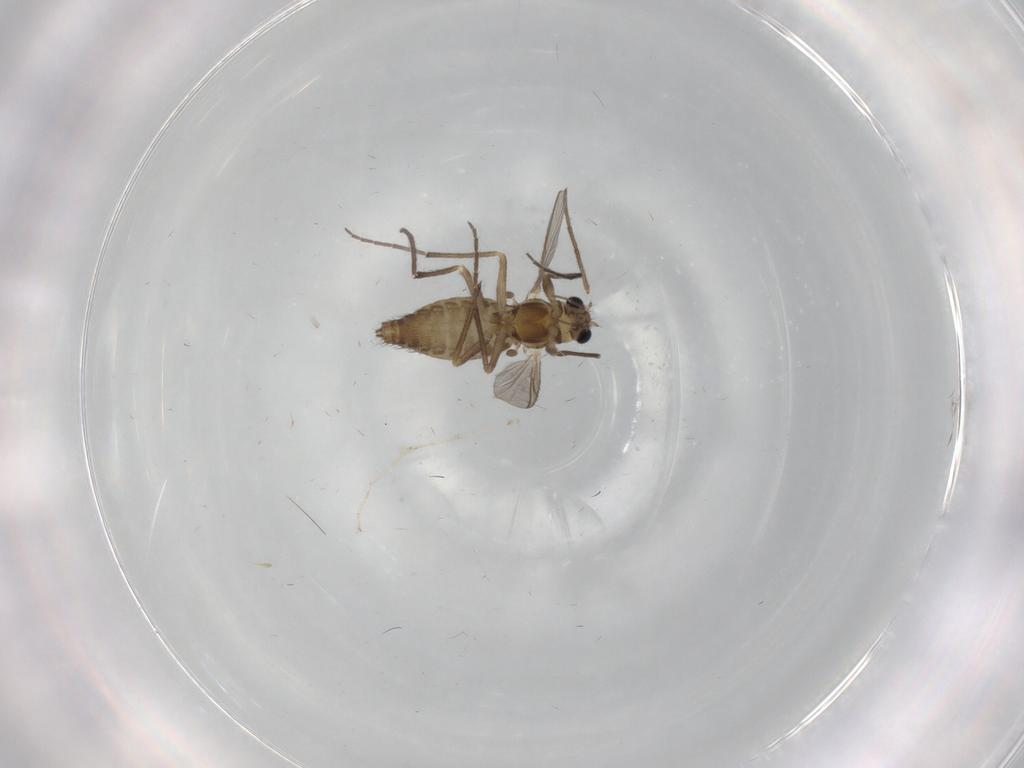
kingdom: Animalia
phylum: Arthropoda
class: Insecta
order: Diptera
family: Chironomidae
